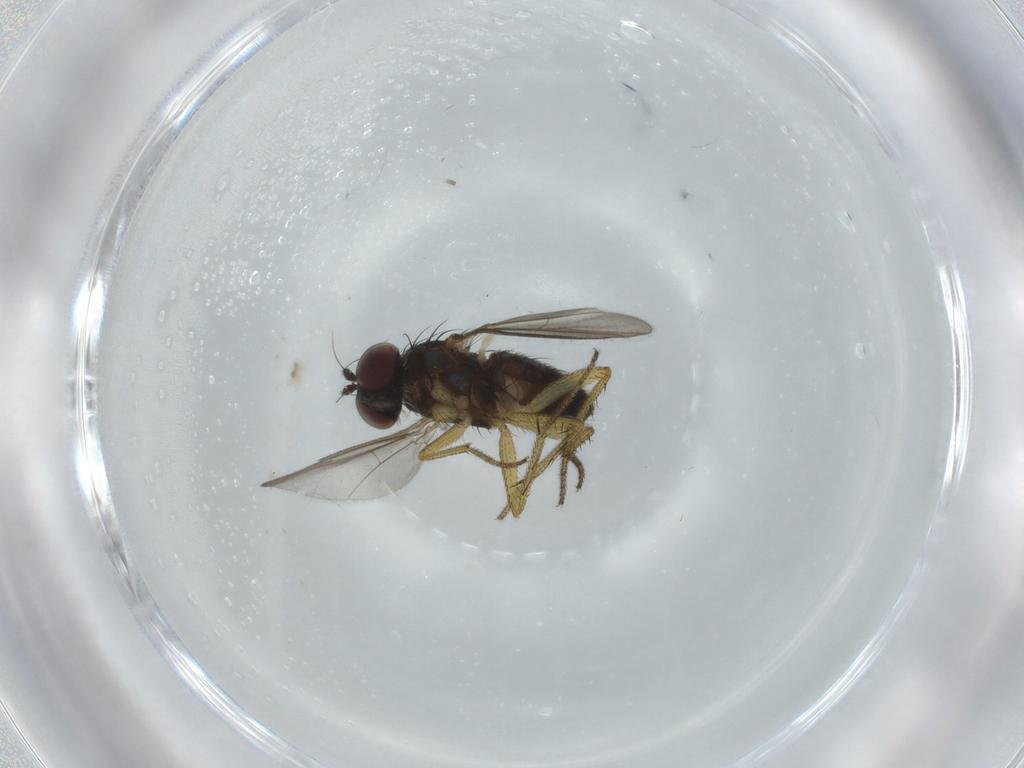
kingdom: Animalia
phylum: Arthropoda
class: Insecta
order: Diptera
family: Dolichopodidae
